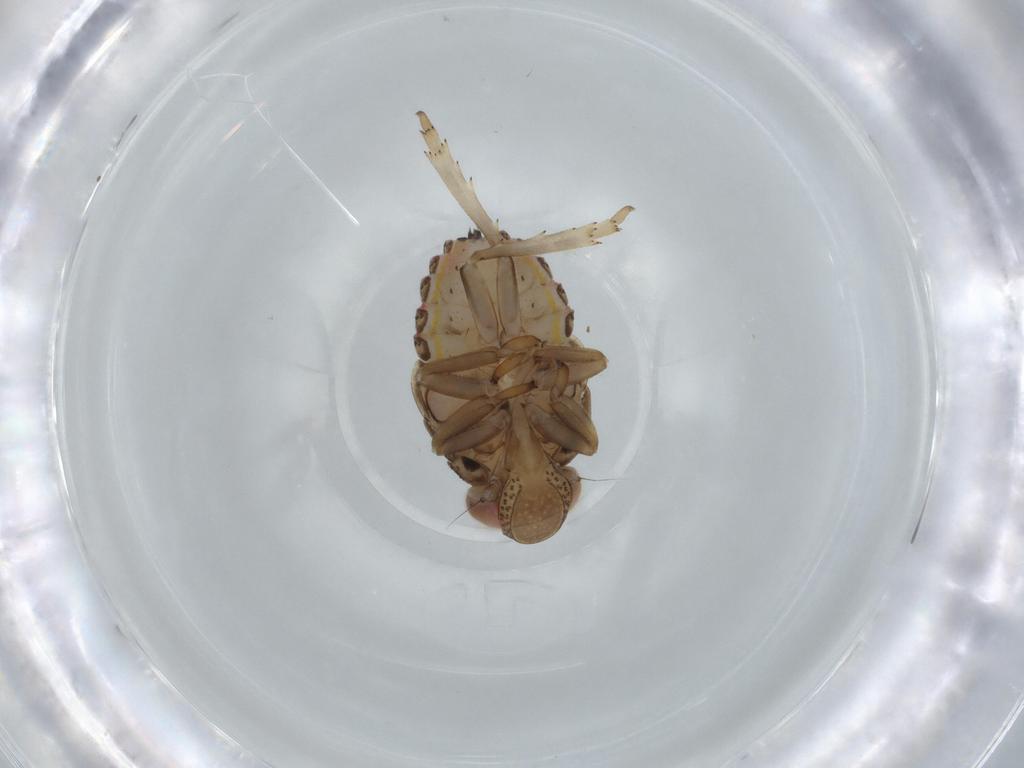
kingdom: Animalia
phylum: Arthropoda
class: Insecta
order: Hemiptera
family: Issidae
